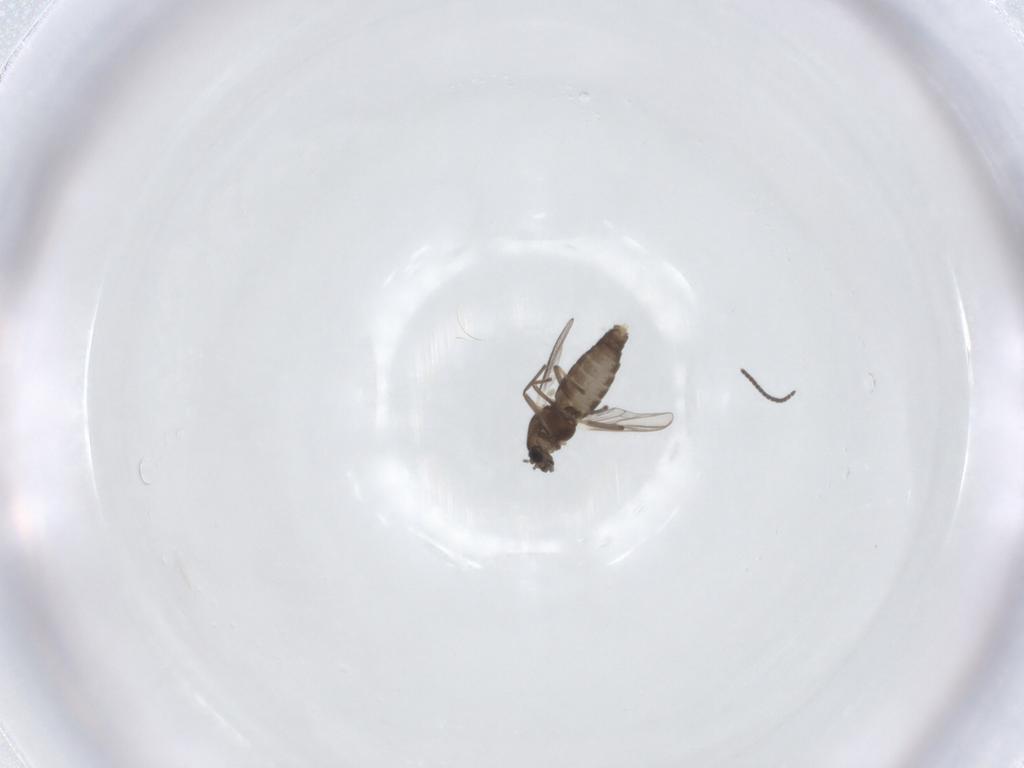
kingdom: Animalia
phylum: Arthropoda
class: Insecta
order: Diptera
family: Chironomidae
